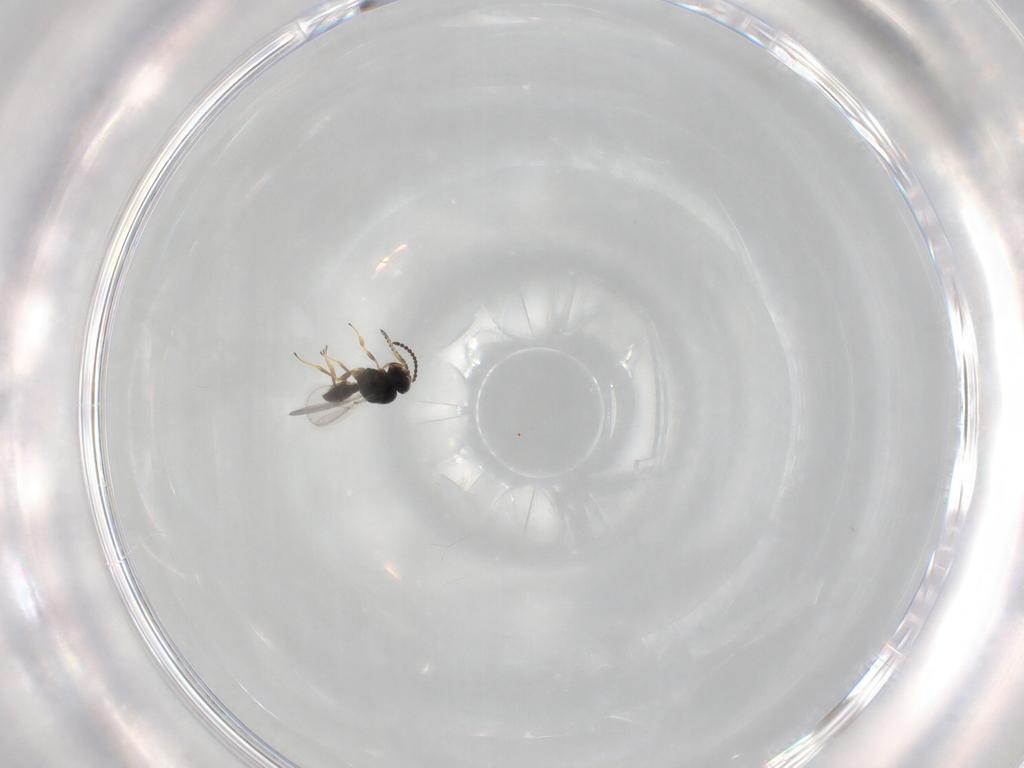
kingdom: Animalia
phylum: Arthropoda
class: Insecta
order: Hymenoptera
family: Scelionidae
